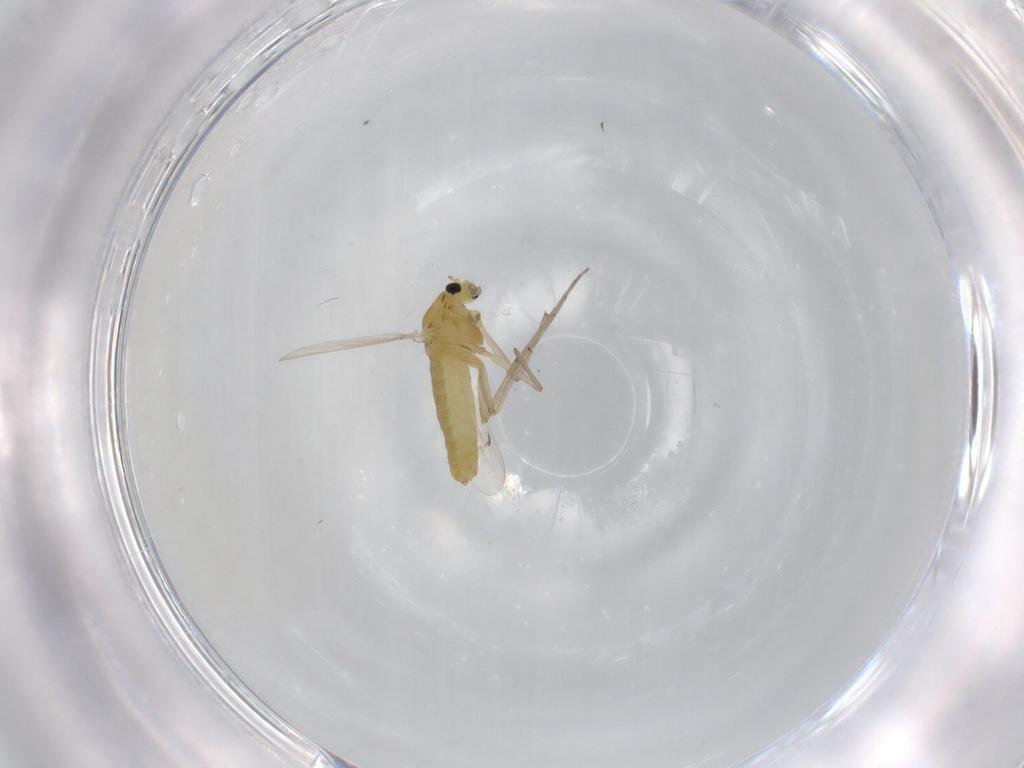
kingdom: Animalia
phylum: Arthropoda
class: Insecta
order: Diptera
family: Chironomidae
